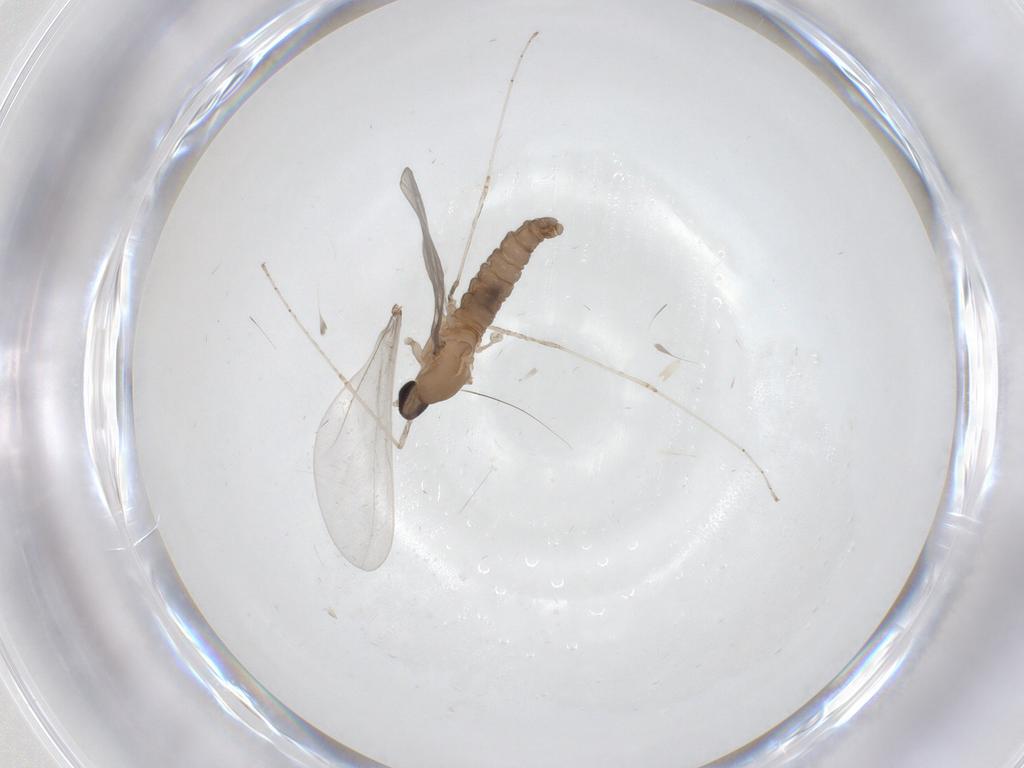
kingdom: Animalia
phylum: Arthropoda
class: Insecta
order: Diptera
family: Cecidomyiidae
